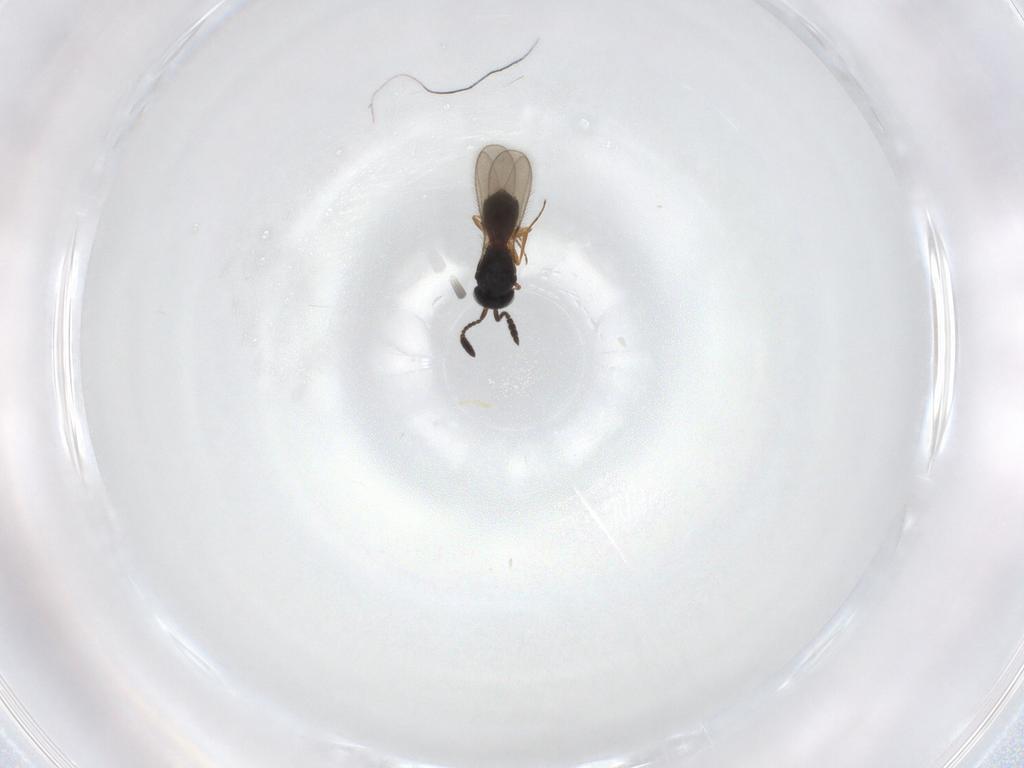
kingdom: Animalia
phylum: Arthropoda
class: Insecta
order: Hymenoptera
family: Scelionidae
